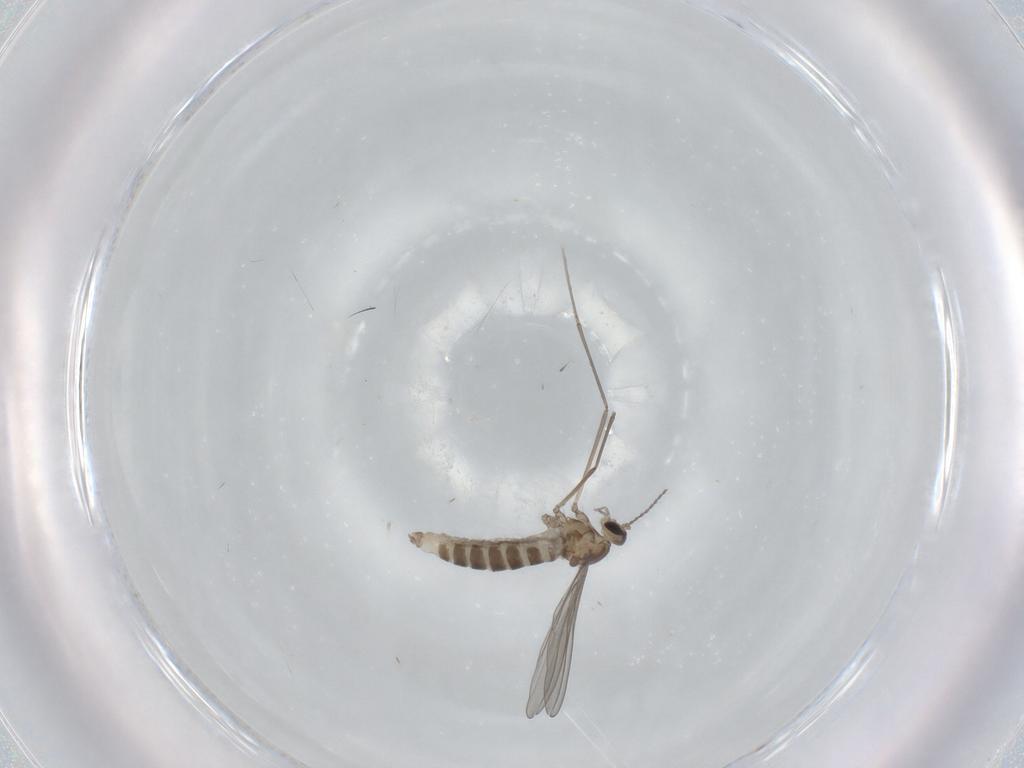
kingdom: Animalia
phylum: Arthropoda
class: Insecta
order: Diptera
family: Cecidomyiidae
